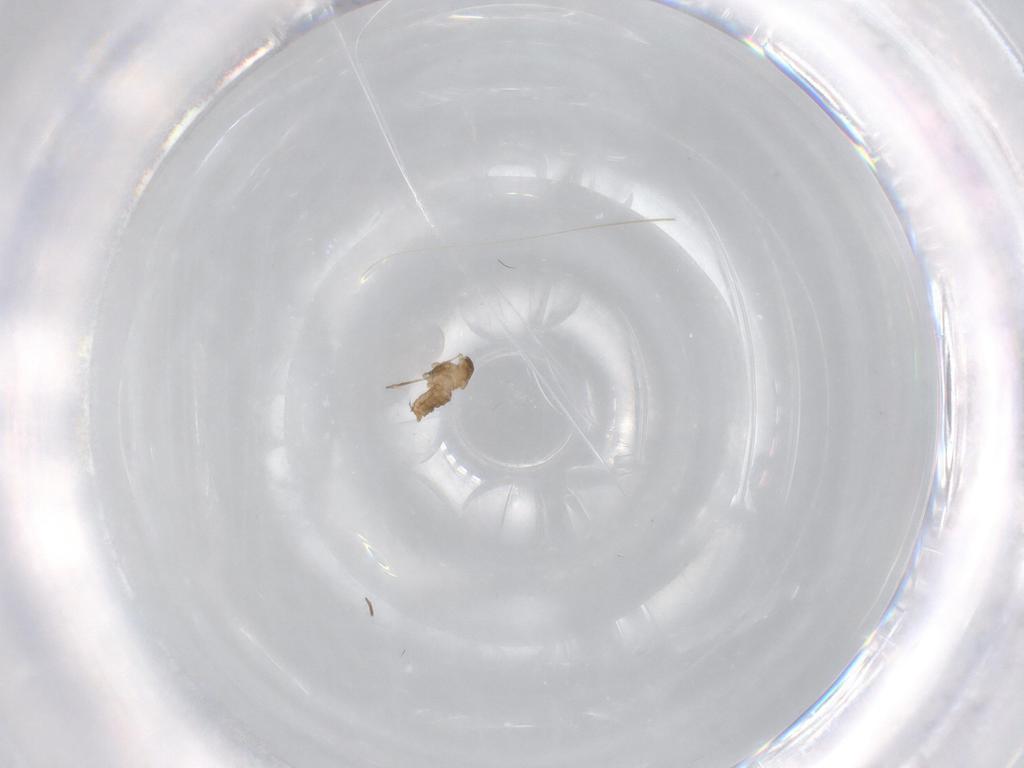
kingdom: Animalia
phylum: Arthropoda
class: Insecta
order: Diptera
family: Cecidomyiidae
